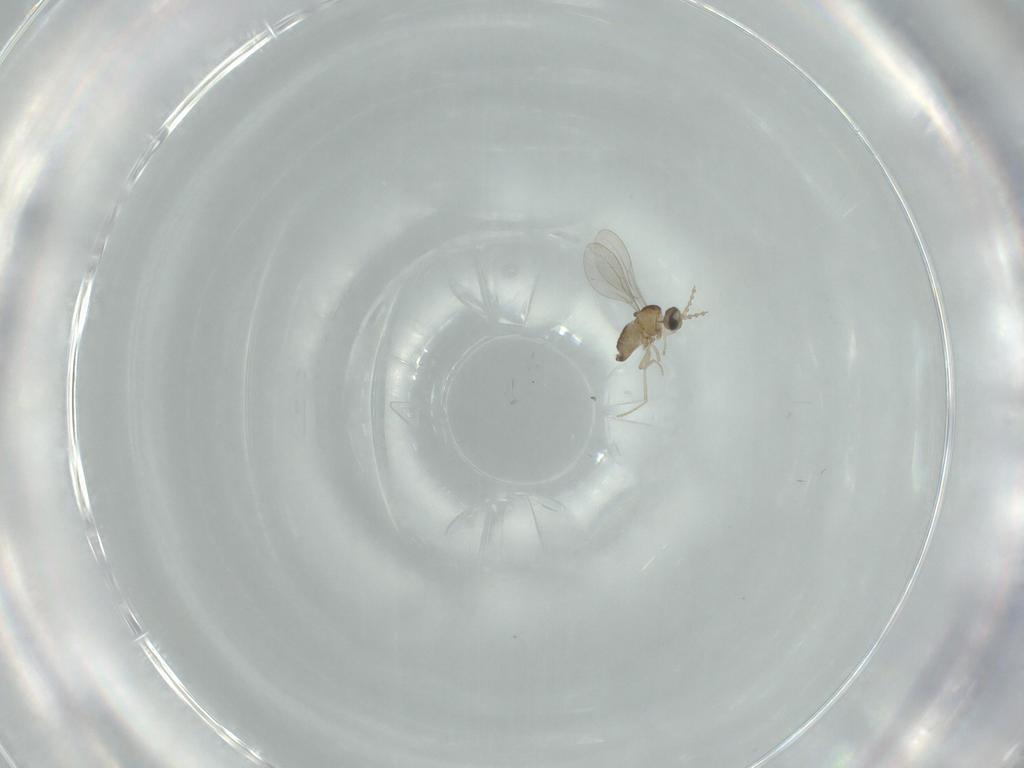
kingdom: Animalia
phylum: Arthropoda
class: Insecta
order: Diptera
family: Cecidomyiidae
